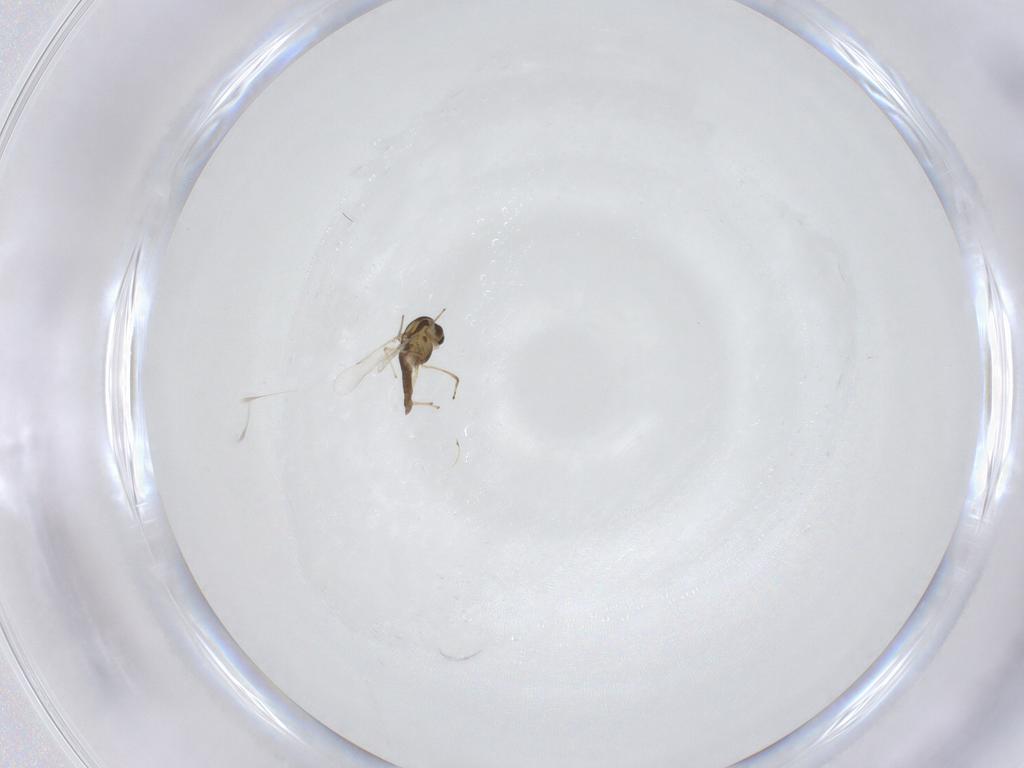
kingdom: Animalia
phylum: Arthropoda
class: Insecta
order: Diptera
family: Chironomidae
